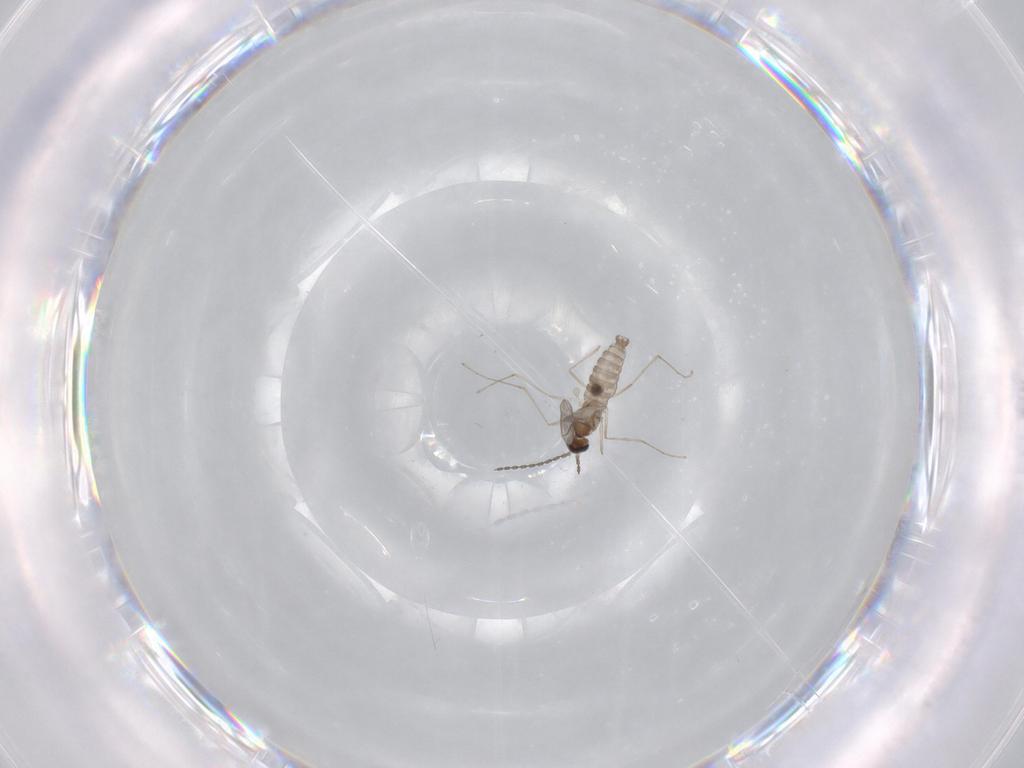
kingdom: Animalia
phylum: Arthropoda
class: Insecta
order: Diptera
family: Chironomidae
